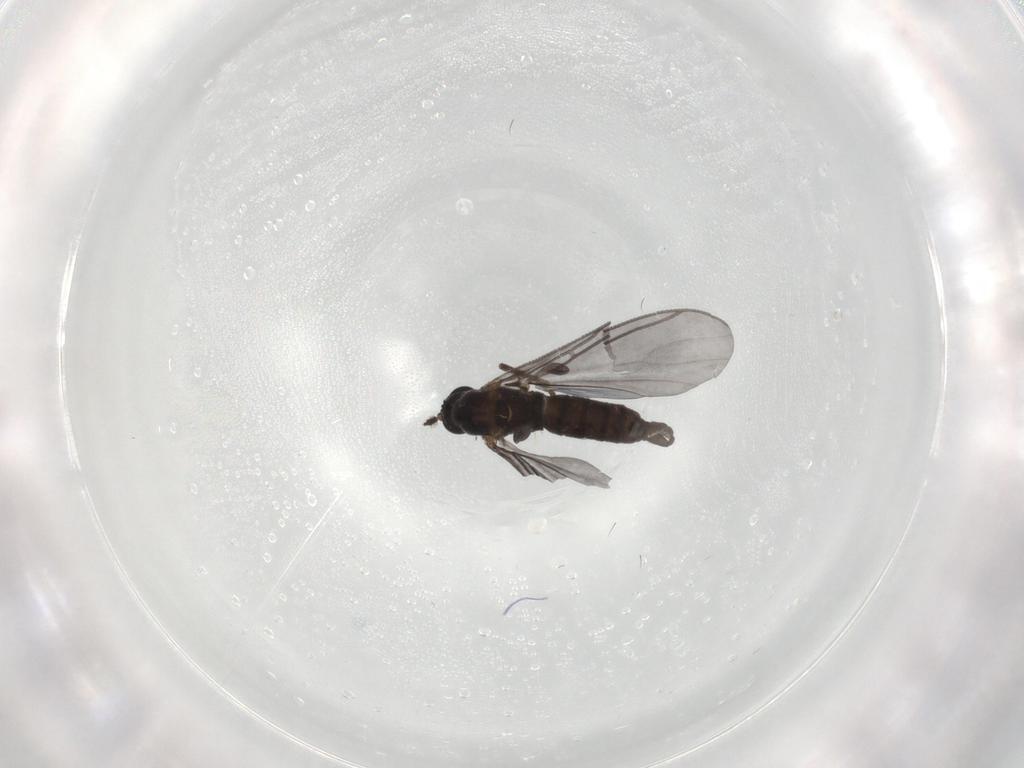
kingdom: Animalia
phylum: Arthropoda
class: Insecta
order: Diptera
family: Sciaridae
